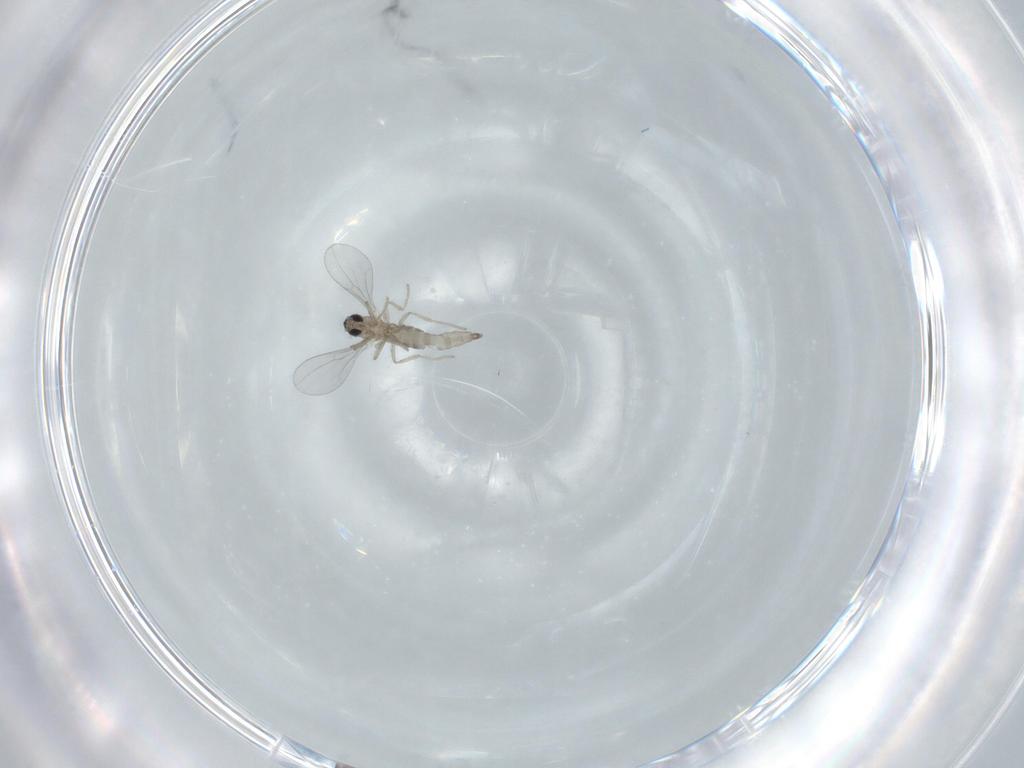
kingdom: Animalia
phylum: Arthropoda
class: Insecta
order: Diptera
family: Cecidomyiidae
